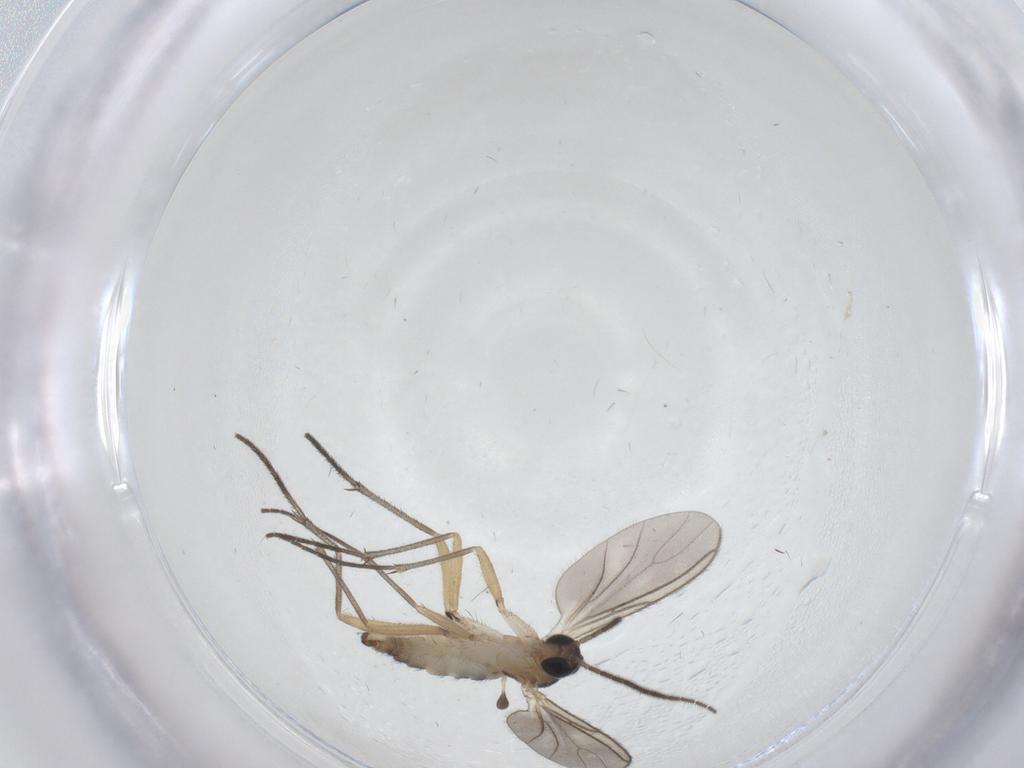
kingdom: Animalia
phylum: Arthropoda
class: Insecta
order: Diptera
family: Sciaridae
